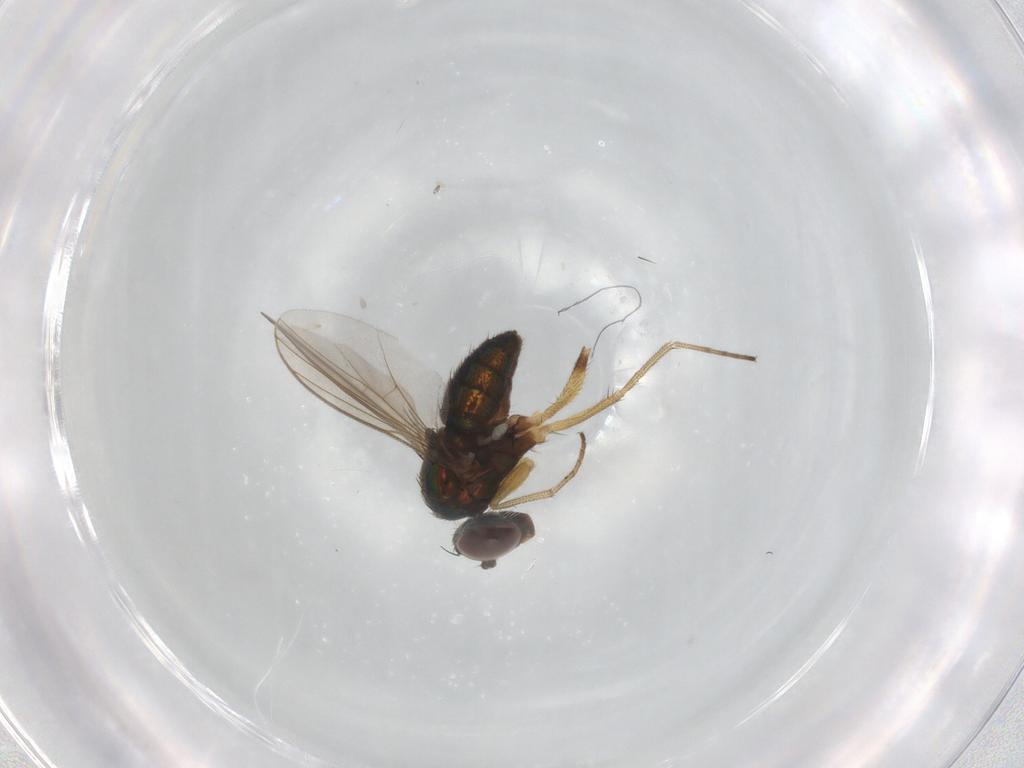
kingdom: Animalia
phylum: Arthropoda
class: Insecta
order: Diptera
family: Dolichopodidae
